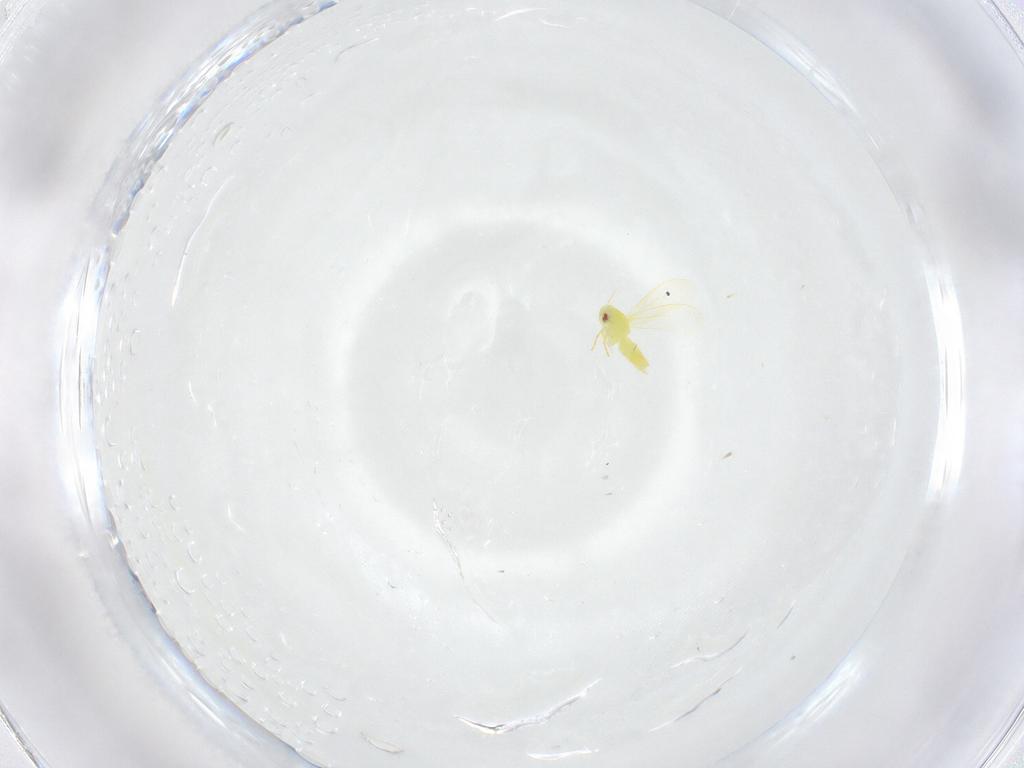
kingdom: Animalia
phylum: Arthropoda
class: Insecta
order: Hemiptera
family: Aleyrodidae
